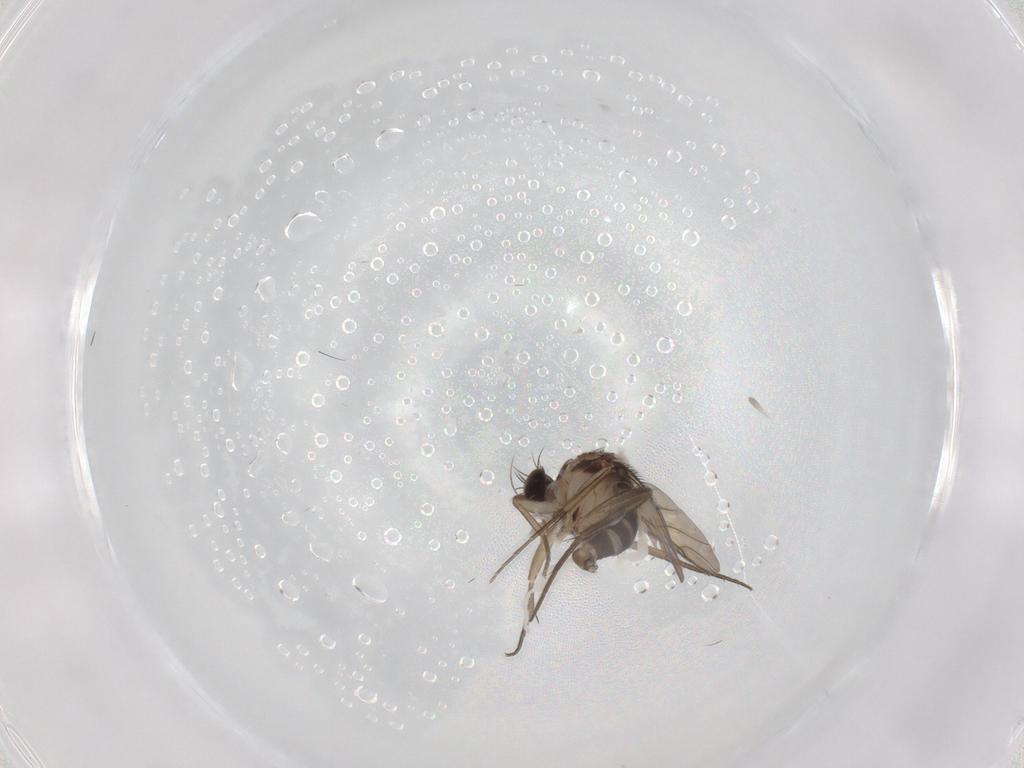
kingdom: Animalia
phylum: Arthropoda
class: Insecta
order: Diptera
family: Phoridae
